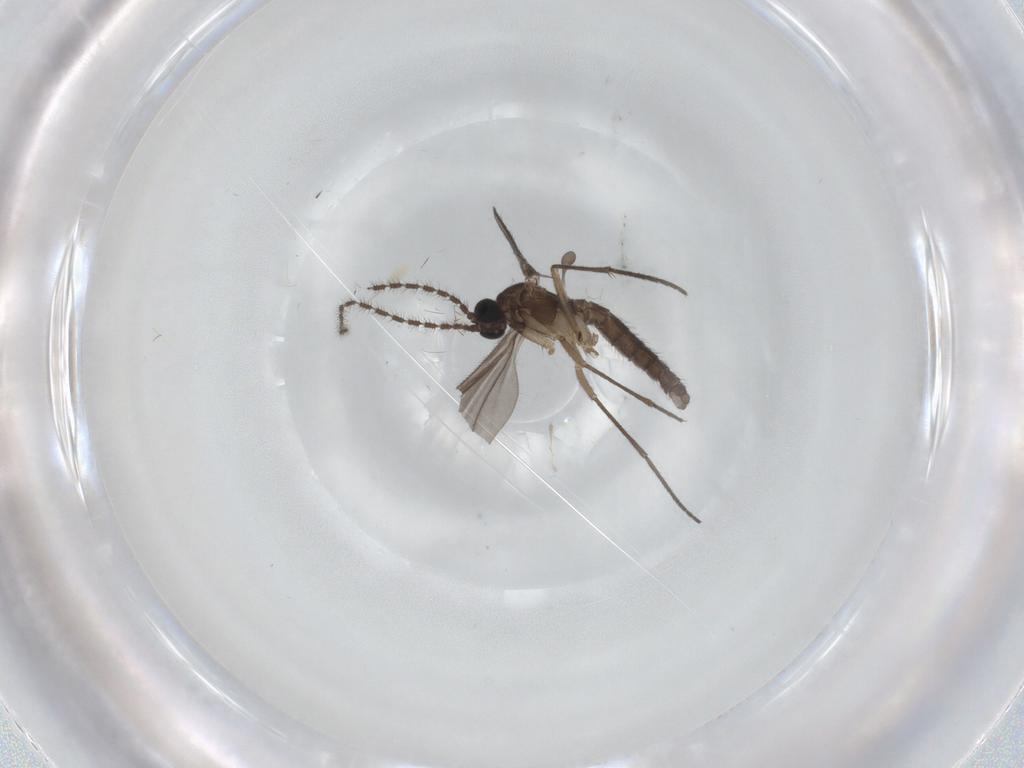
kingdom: Animalia
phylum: Arthropoda
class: Insecta
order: Diptera
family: Sciaridae
